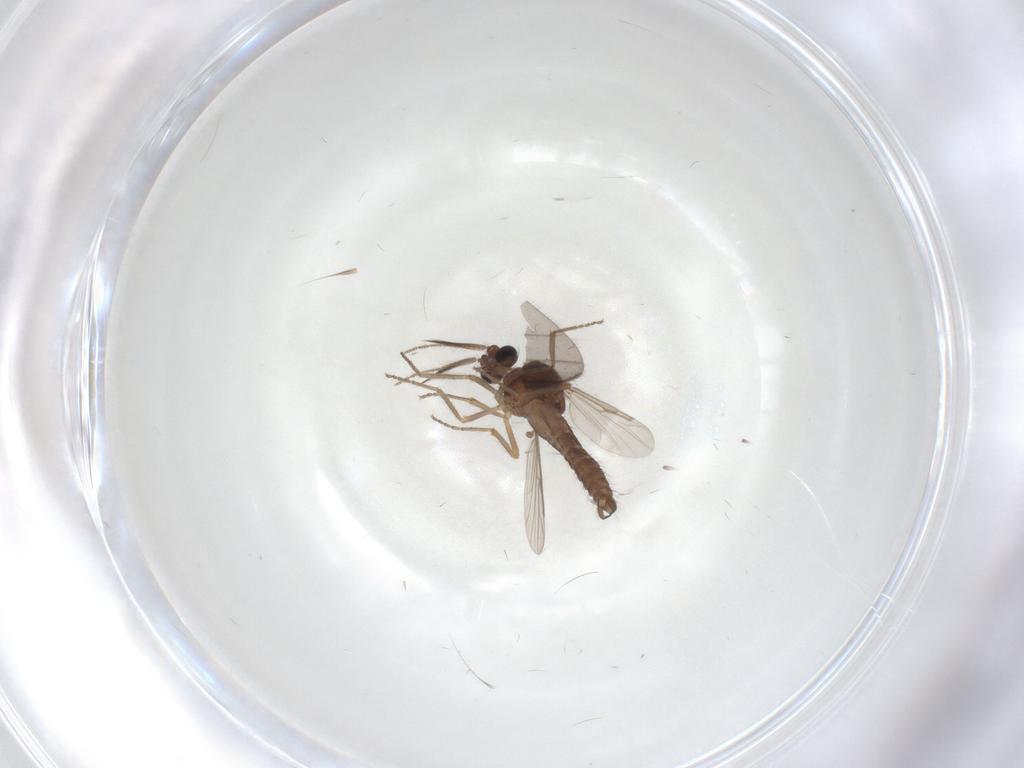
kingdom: Animalia
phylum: Arthropoda
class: Insecta
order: Diptera
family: Ceratopogonidae
